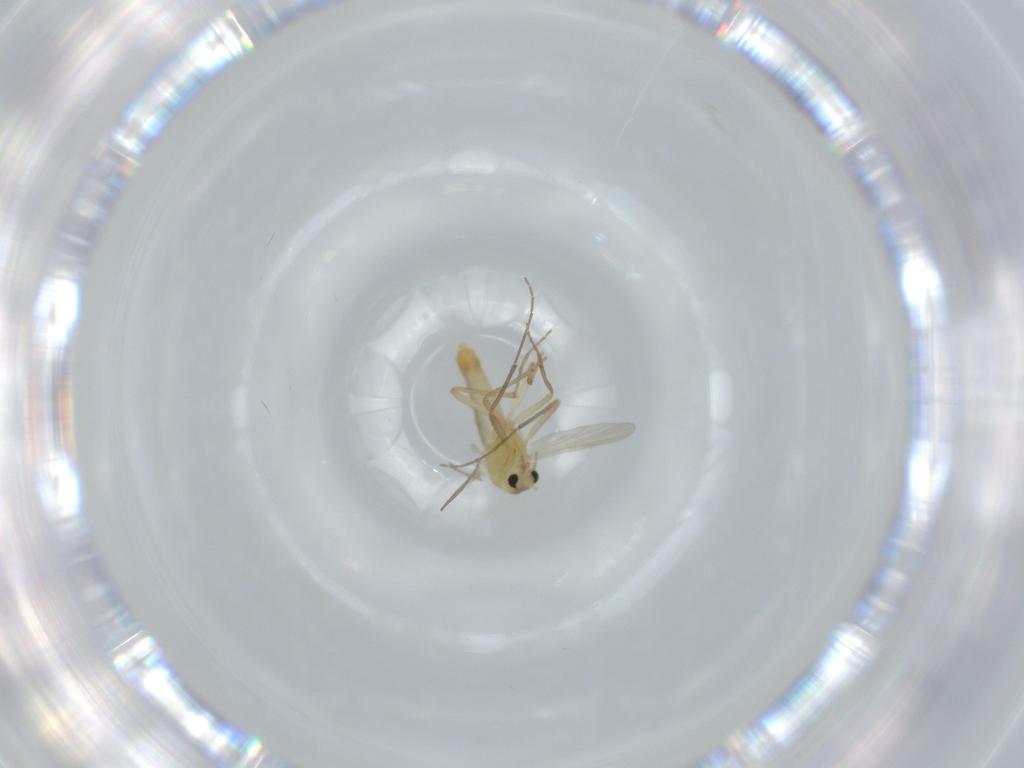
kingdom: Animalia
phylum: Arthropoda
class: Insecta
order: Diptera
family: Chironomidae
